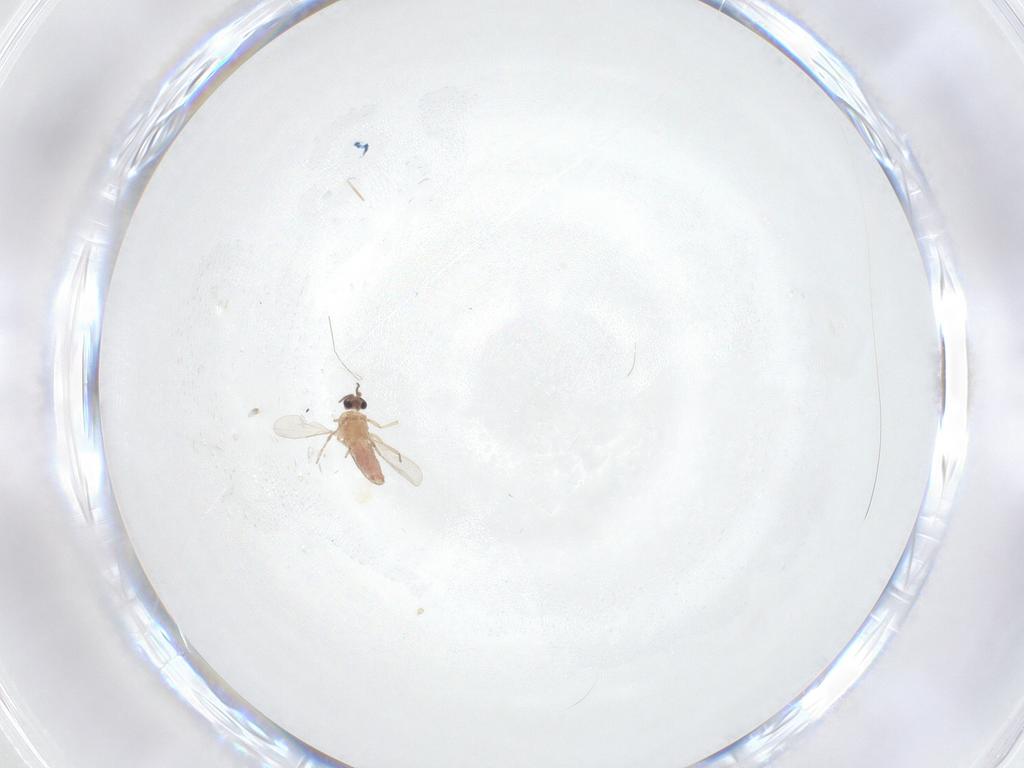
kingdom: Animalia
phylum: Arthropoda
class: Insecta
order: Diptera
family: Ceratopogonidae
